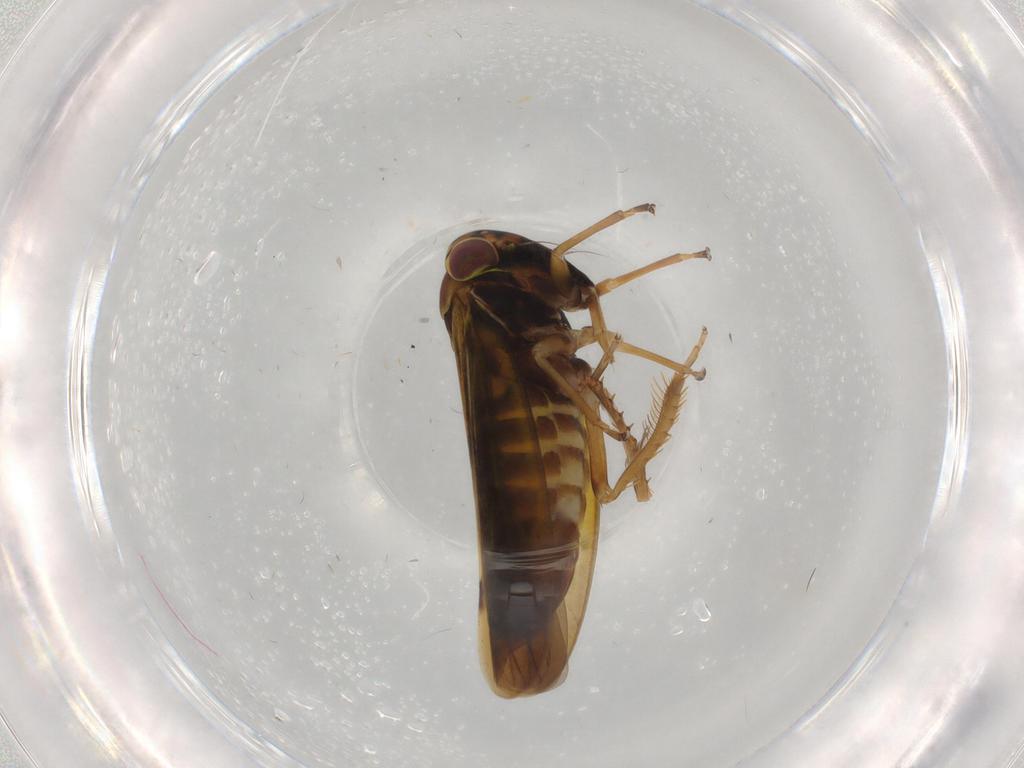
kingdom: Animalia
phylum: Arthropoda
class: Insecta
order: Hemiptera
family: Cicadellidae
